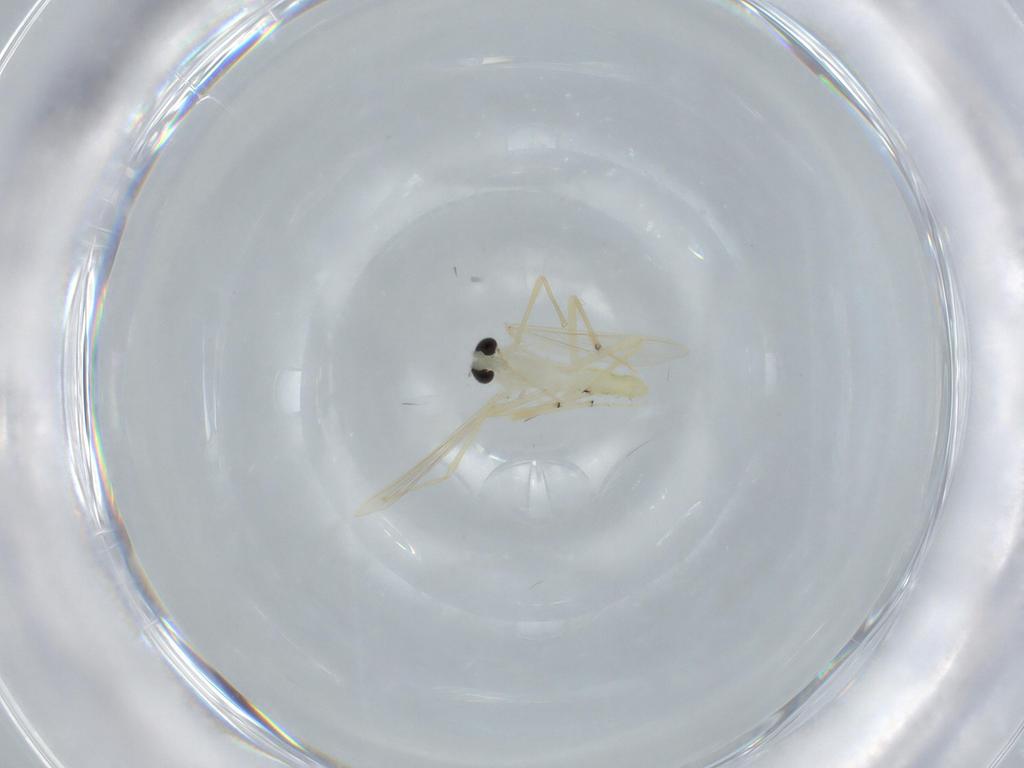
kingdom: Animalia
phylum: Arthropoda
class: Insecta
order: Diptera
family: Chironomidae
